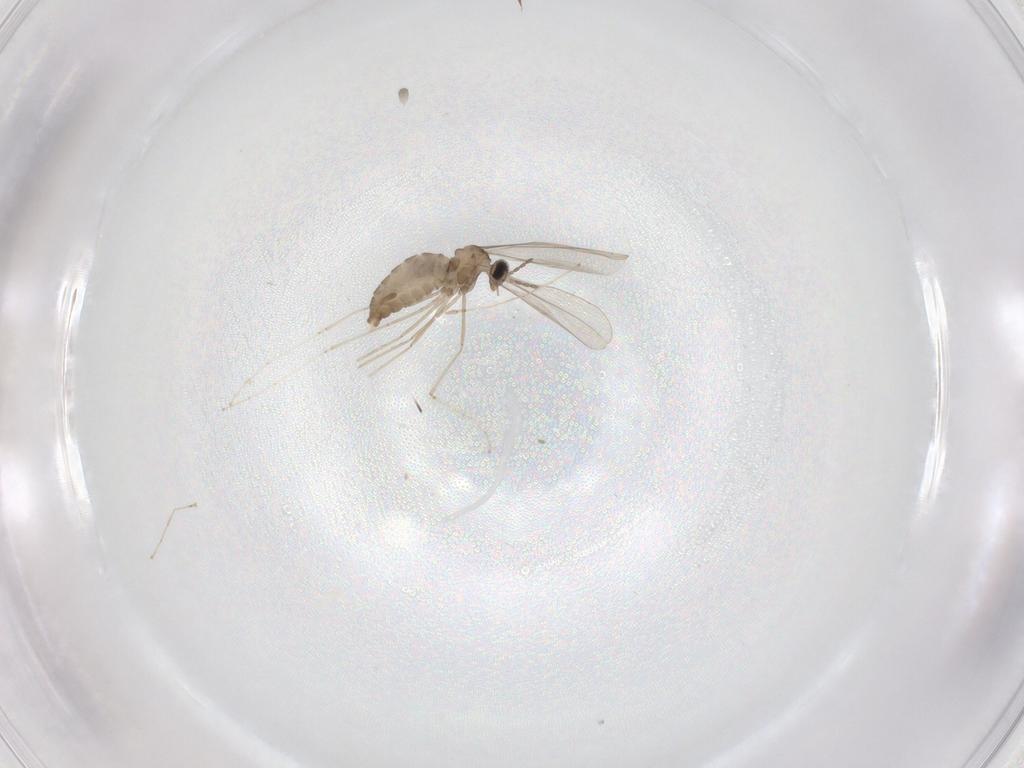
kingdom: Animalia
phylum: Arthropoda
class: Insecta
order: Diptera
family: Cecidomyiidae
